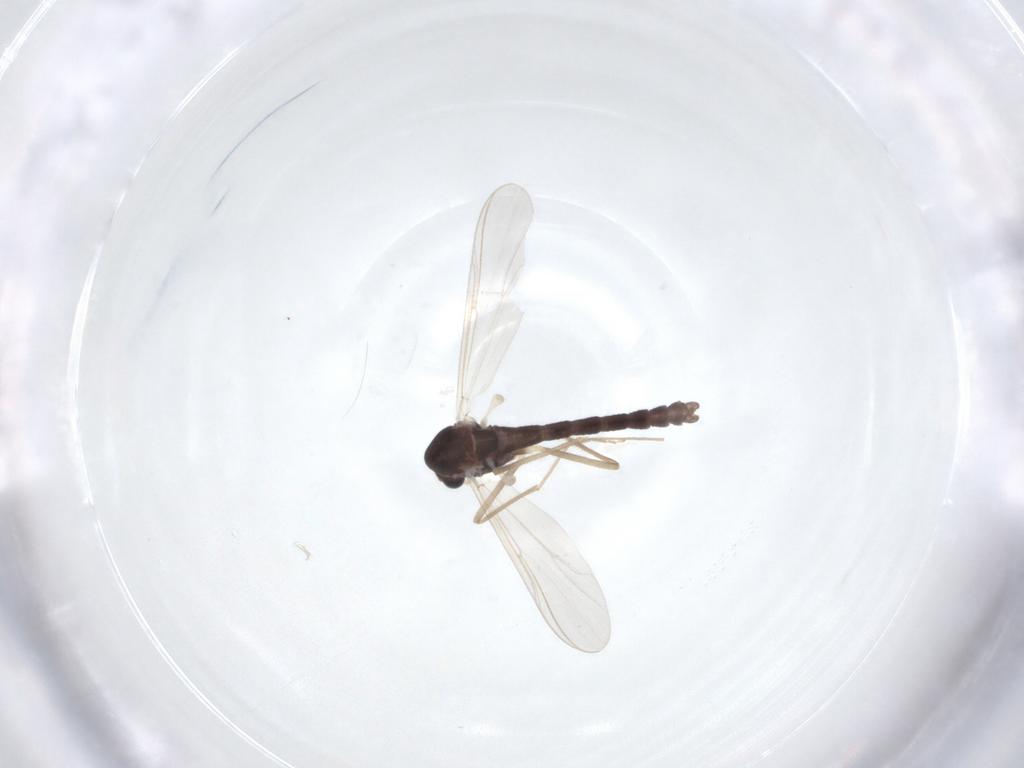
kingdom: Animalia
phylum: Arthropoda
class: Insecta
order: Diptera
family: Chironomidae
